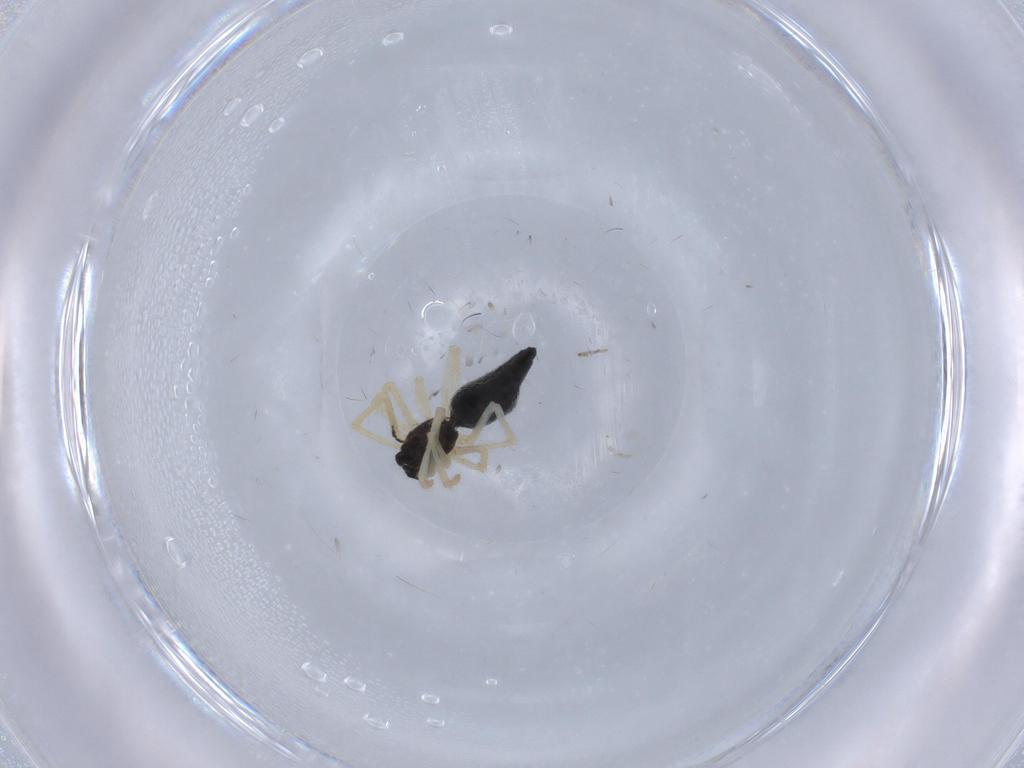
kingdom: Animalia
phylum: Arthropoda
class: Arachnida
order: Araneae
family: Theridiidae
